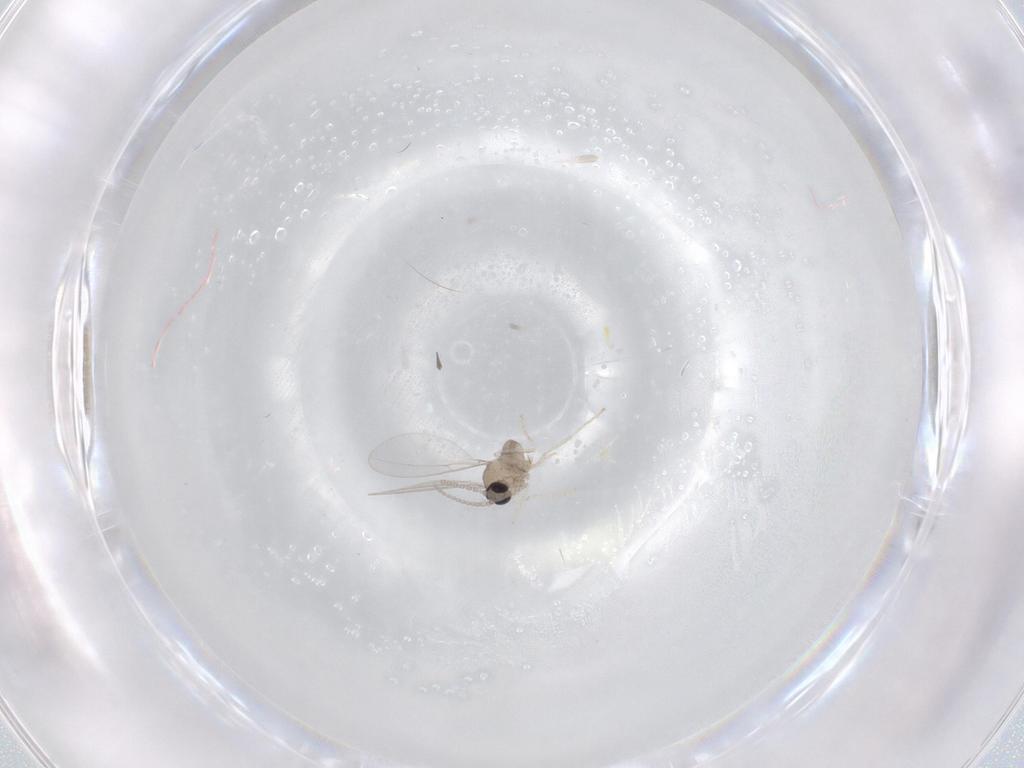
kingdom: Animalia
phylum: Arthropoda
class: Insecta
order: Diptera
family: Cecidomyiidae
